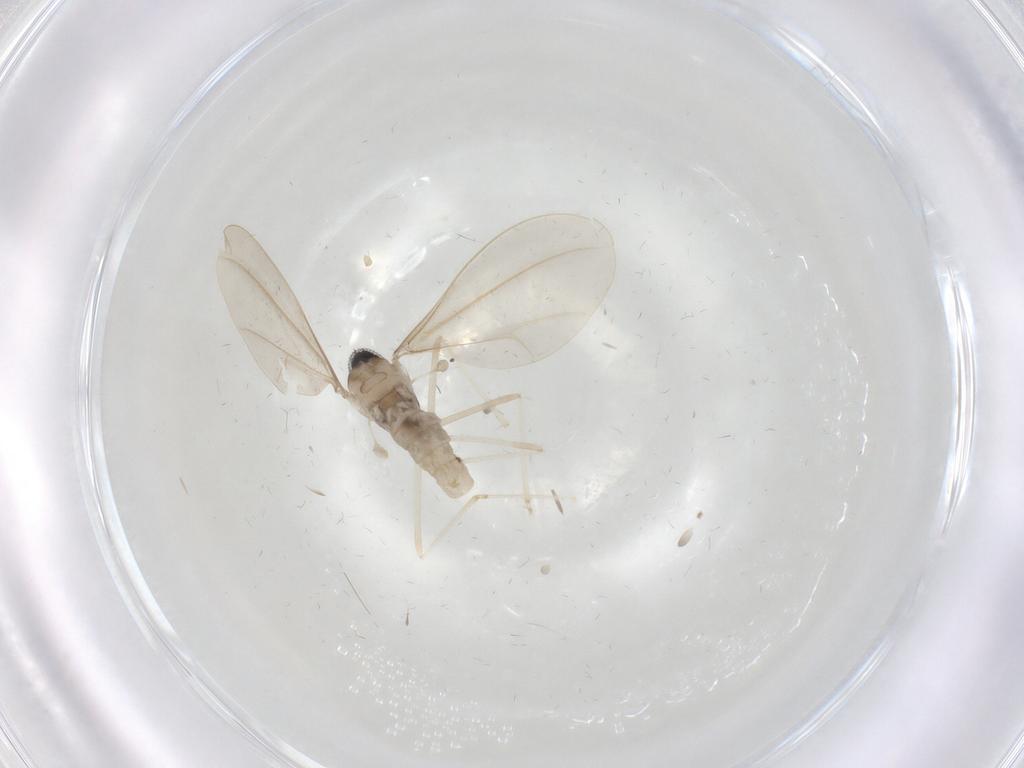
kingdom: Animalia
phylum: Arthropoda
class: Insecta
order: Diptera
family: Cecidomyiidae
